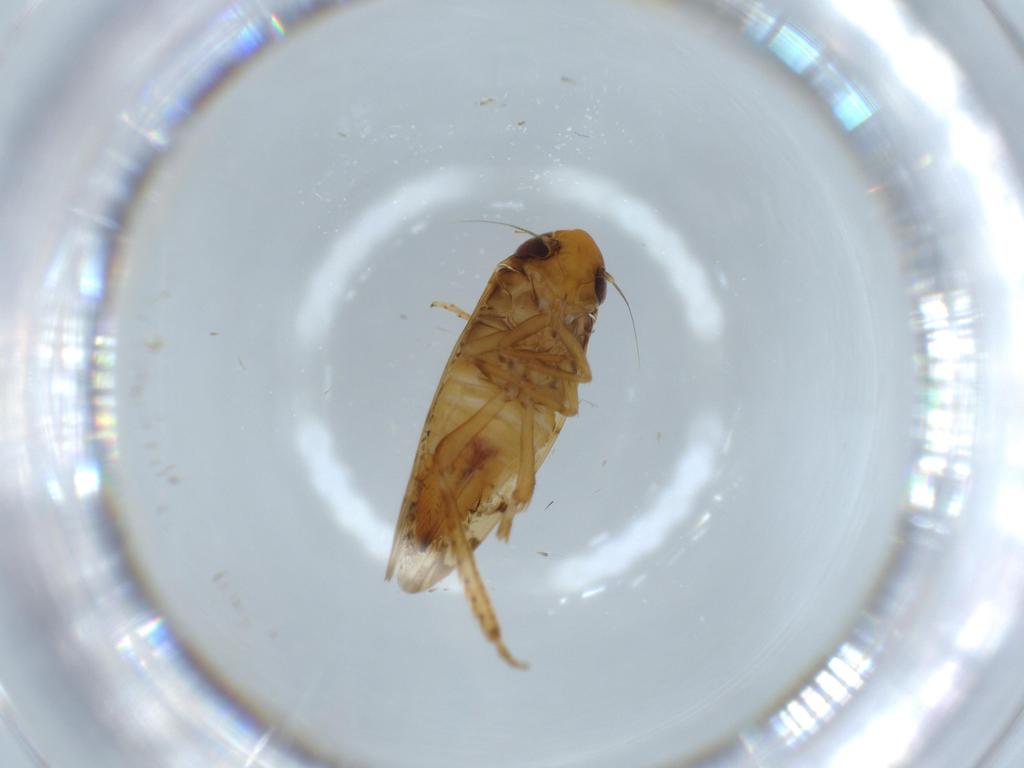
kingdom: Animalia
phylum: Arthropoda
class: Insecta
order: Hemiptera
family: Cicadellidae
